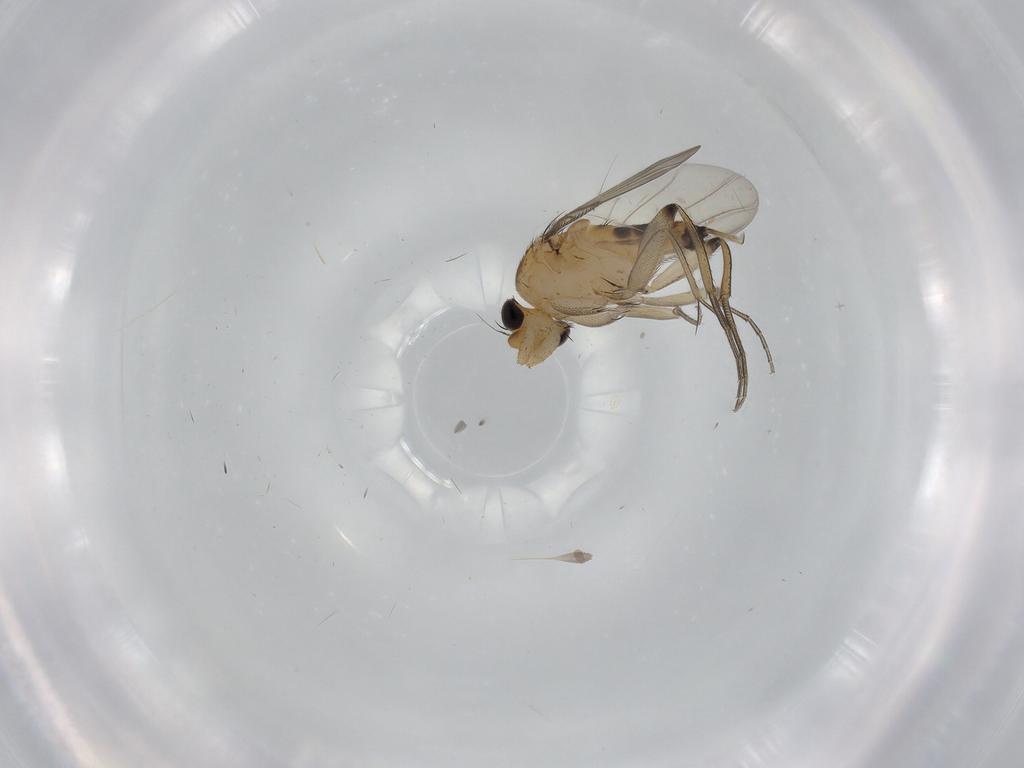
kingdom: Animalia
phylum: Arthropoda
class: Insecta
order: Diptera
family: Phoridae
